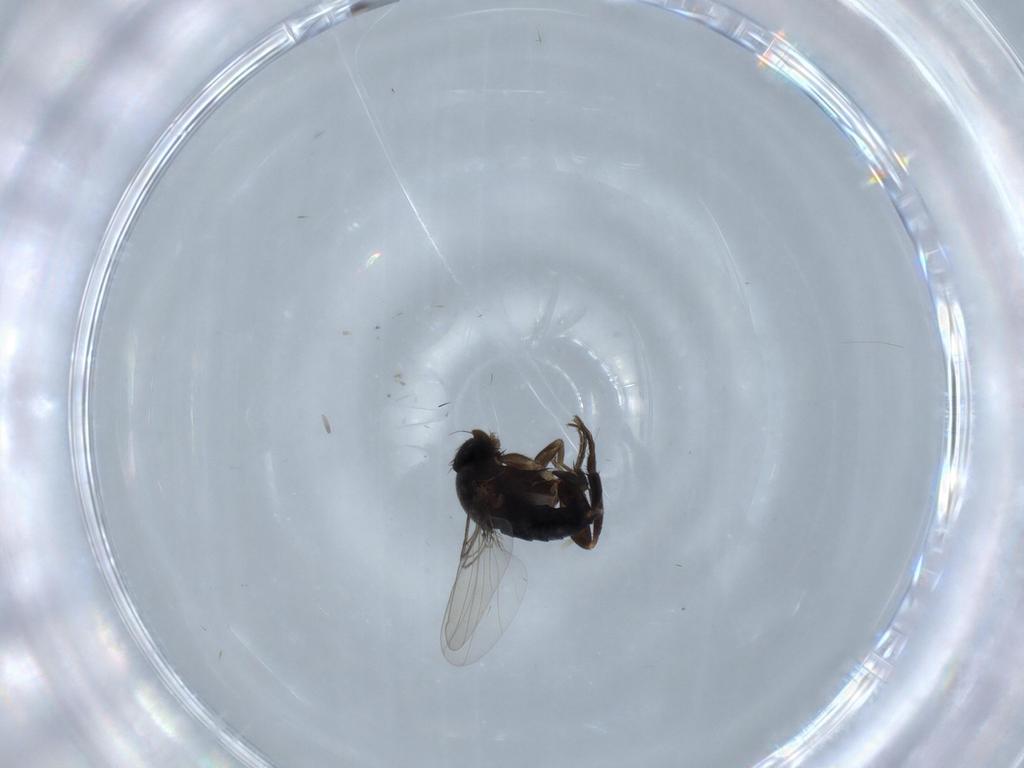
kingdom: Animalia
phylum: Arthropoda
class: Insecta
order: Diptera
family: Phoridae
